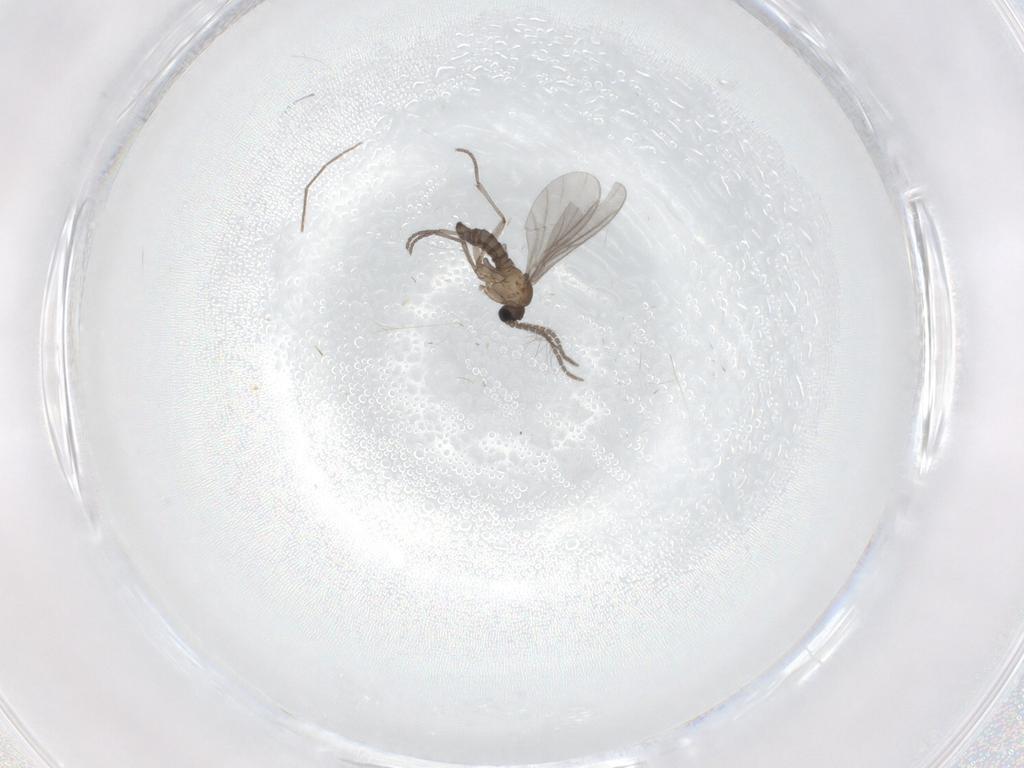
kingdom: Animalia
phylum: Arthropoda
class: Insecta
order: Diptera
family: Sciaridae
